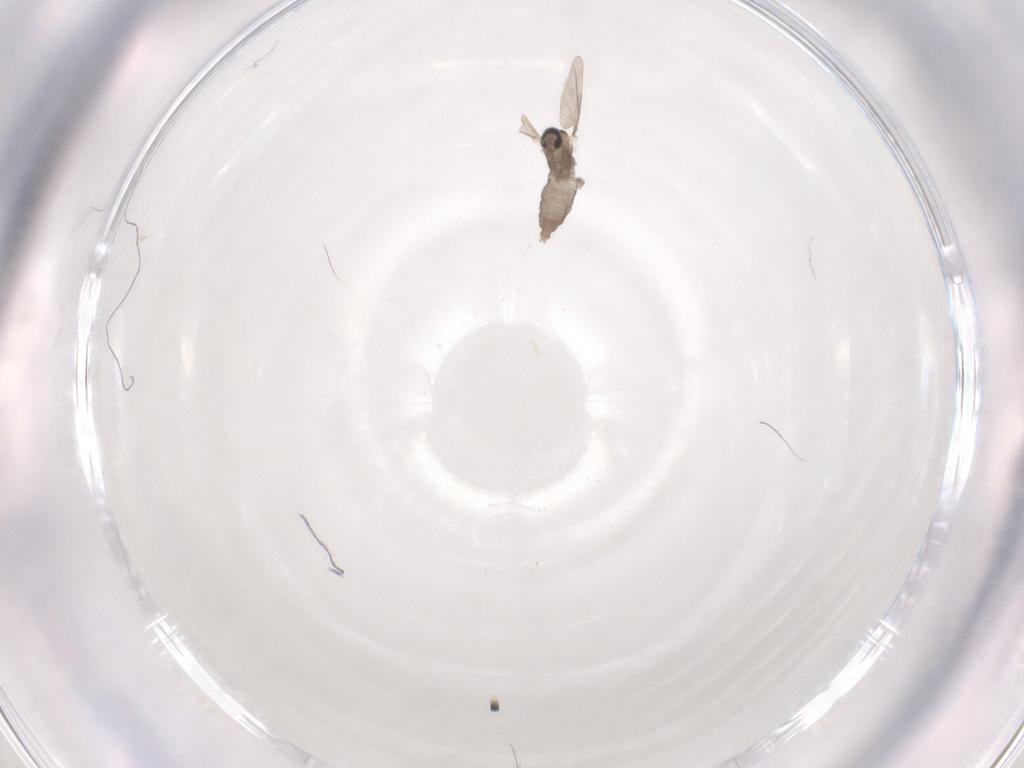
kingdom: Animalia
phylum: Arthropoda
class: Insecta
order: Diptera
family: Cecidomyiidae
